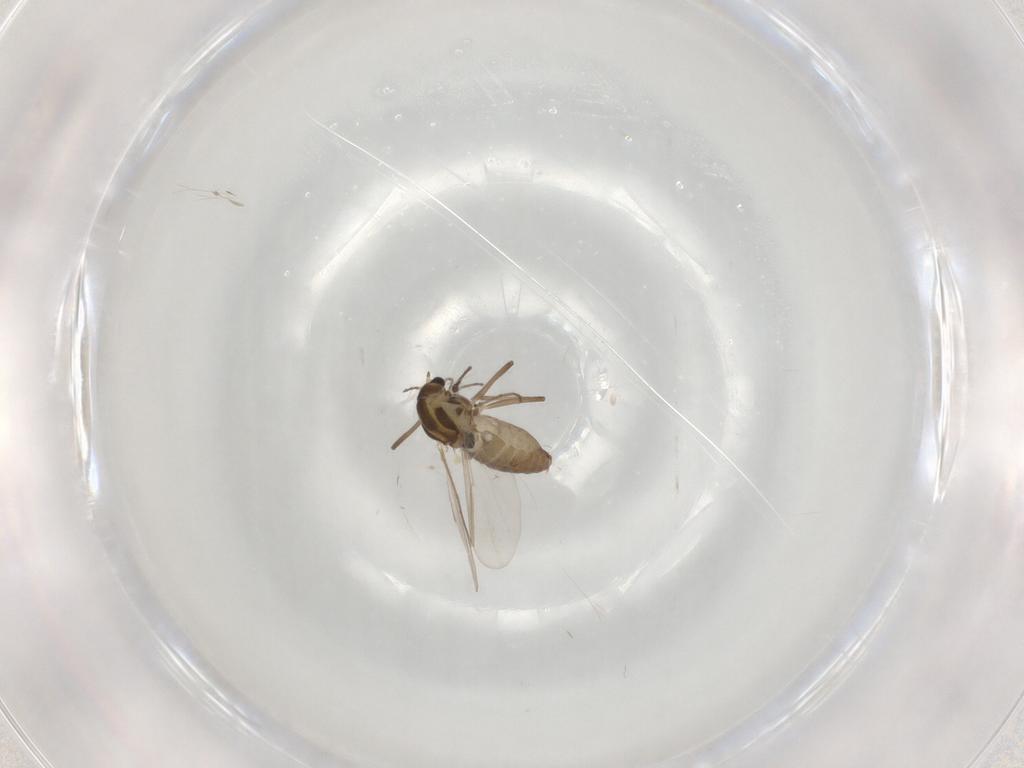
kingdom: Animalia
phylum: Arthropoda
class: Insecta
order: Diptera
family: Chironomidae
